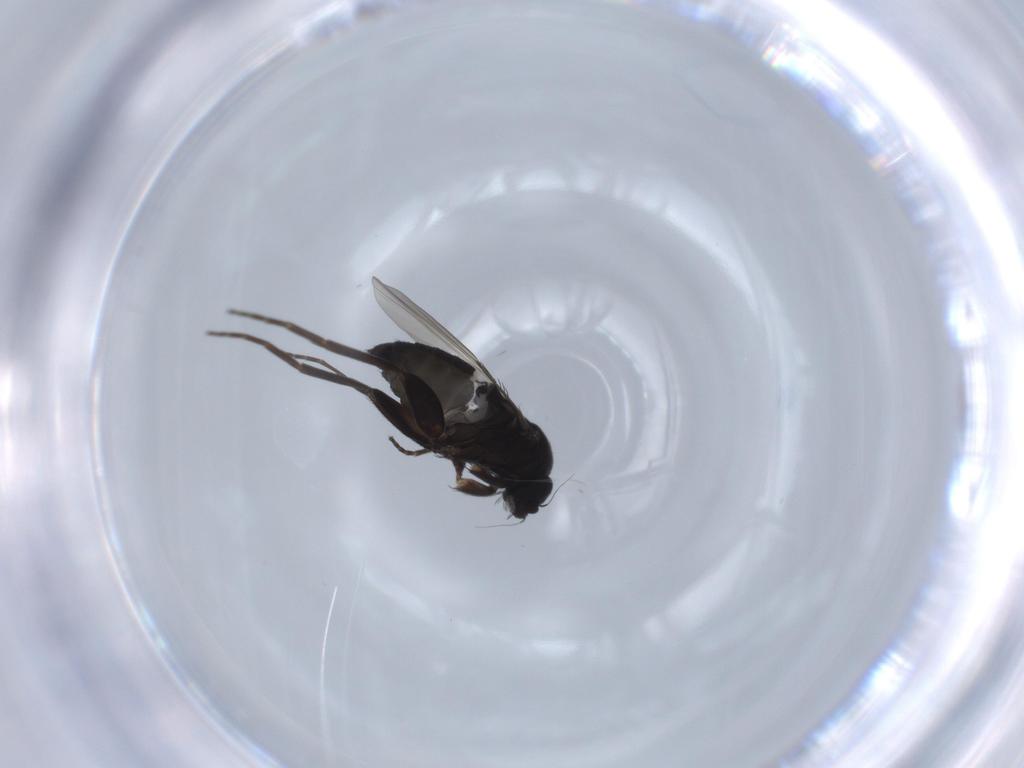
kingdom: Animalia
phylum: Arthropoda
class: Insecta
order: Diptera
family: Phoridae
